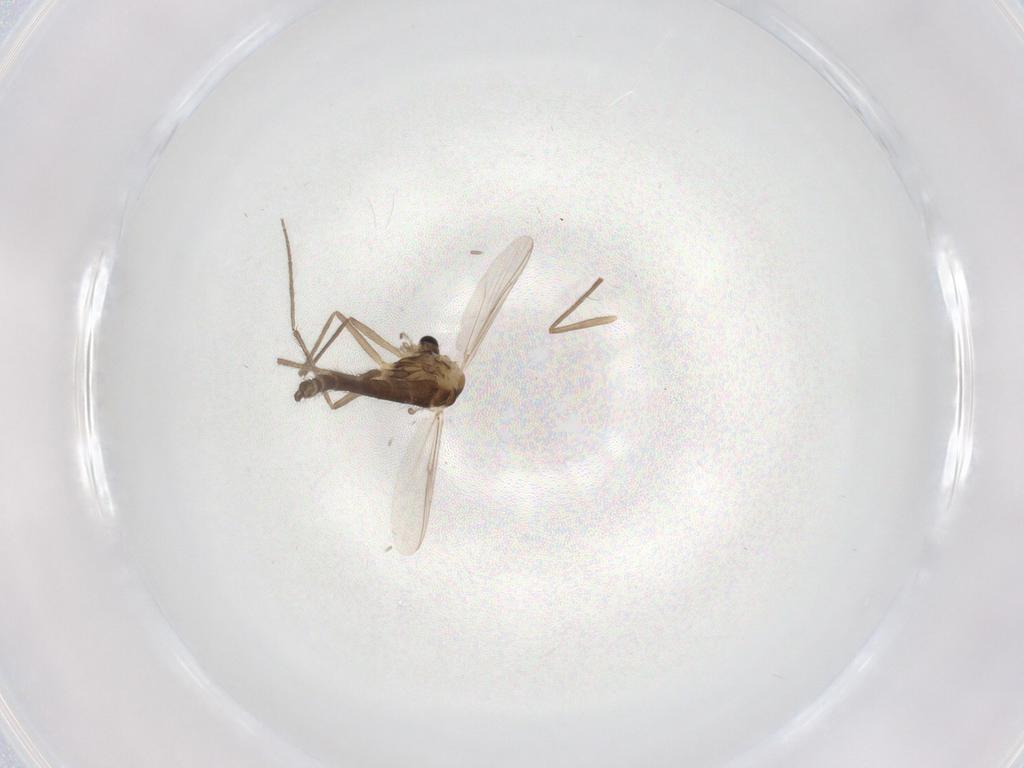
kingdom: Animalia
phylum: Arthropoda
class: Insecta
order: Diptera
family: Chironomidae
